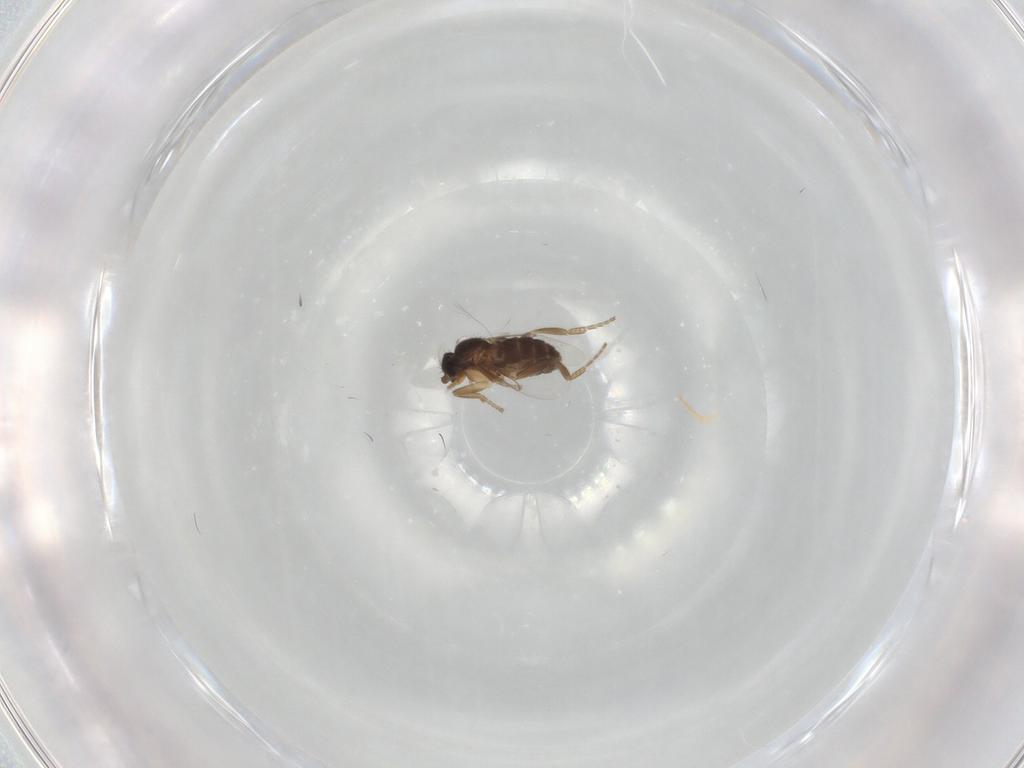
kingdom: Animalia
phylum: Arthropoda
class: Insecta
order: Diptera
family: Phoridae
